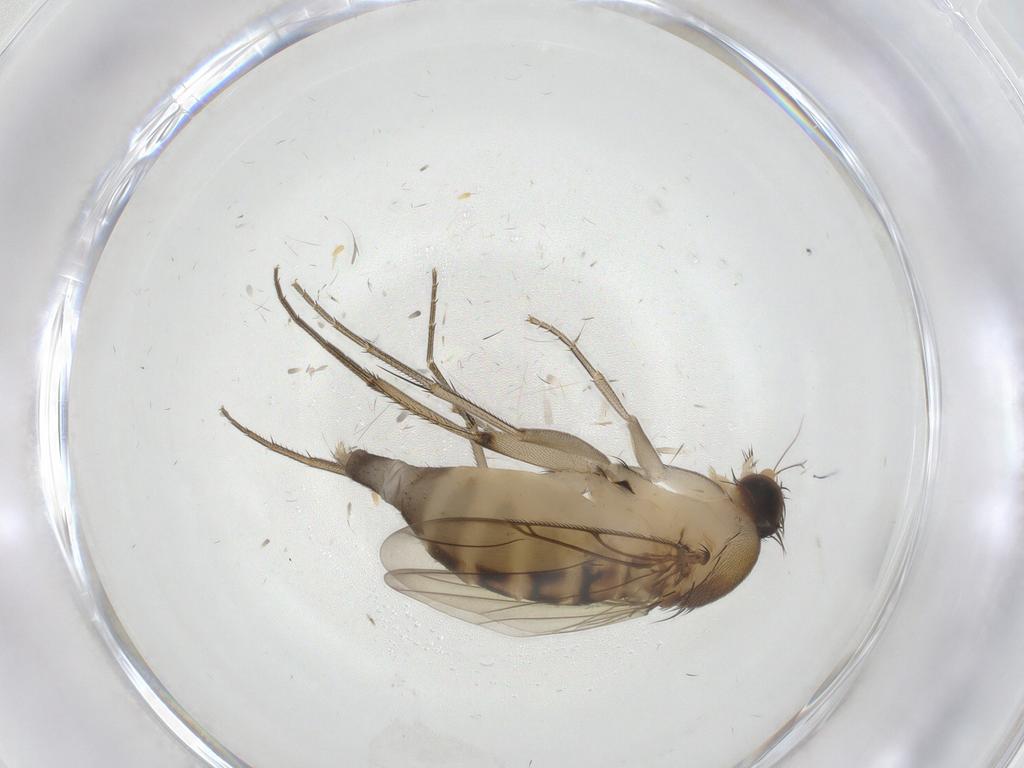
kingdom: Animalia
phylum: Arthropoda
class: Insecta
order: Diptera
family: Phoridae
